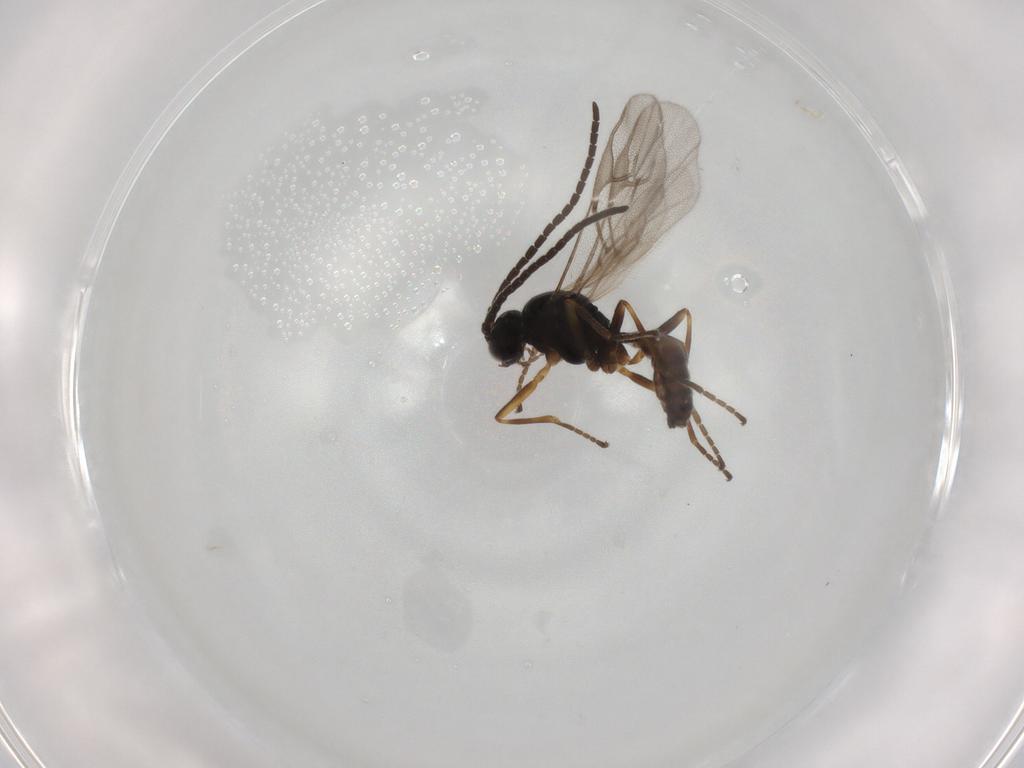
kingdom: Animalia
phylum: Arthropoda
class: Insecta
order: Hymenoptera
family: Braconidae
